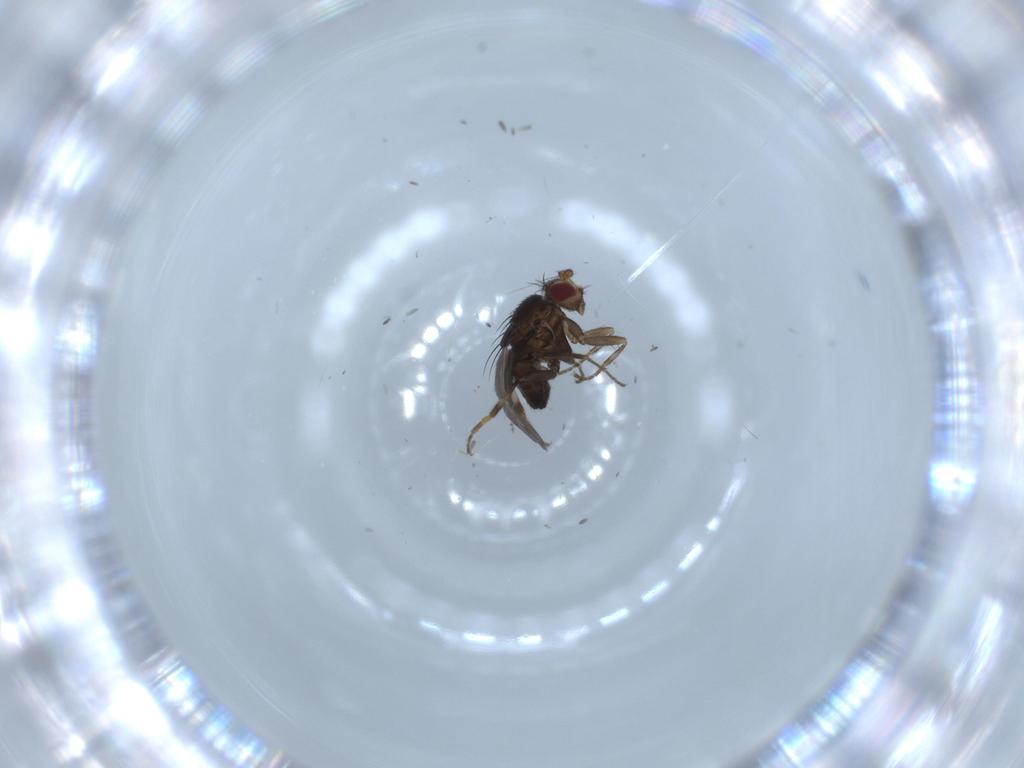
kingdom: Animalia
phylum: Arthropoda
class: Insecta
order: Diptera
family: Cecidomyiidae
